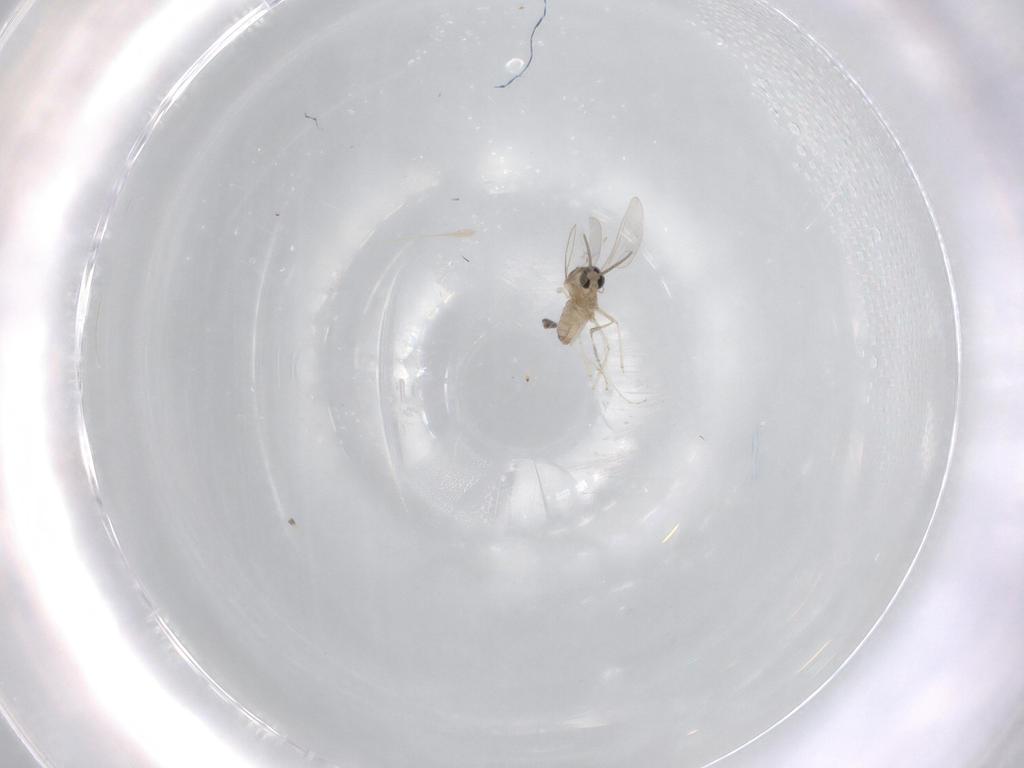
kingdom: Animalia
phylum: Arthropoda
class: Insecta
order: Diptera
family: Cecidomyiidae
